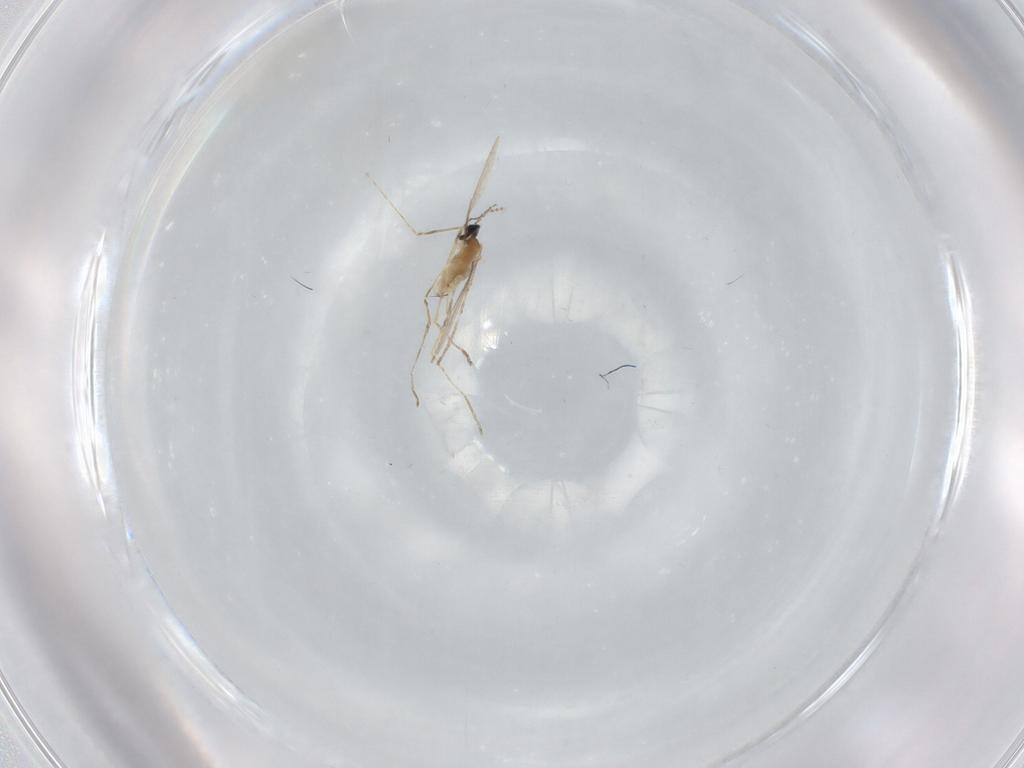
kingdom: Animalia
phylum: Arthropoda
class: Insecta
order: Diptera
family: Cecidomyiidae
